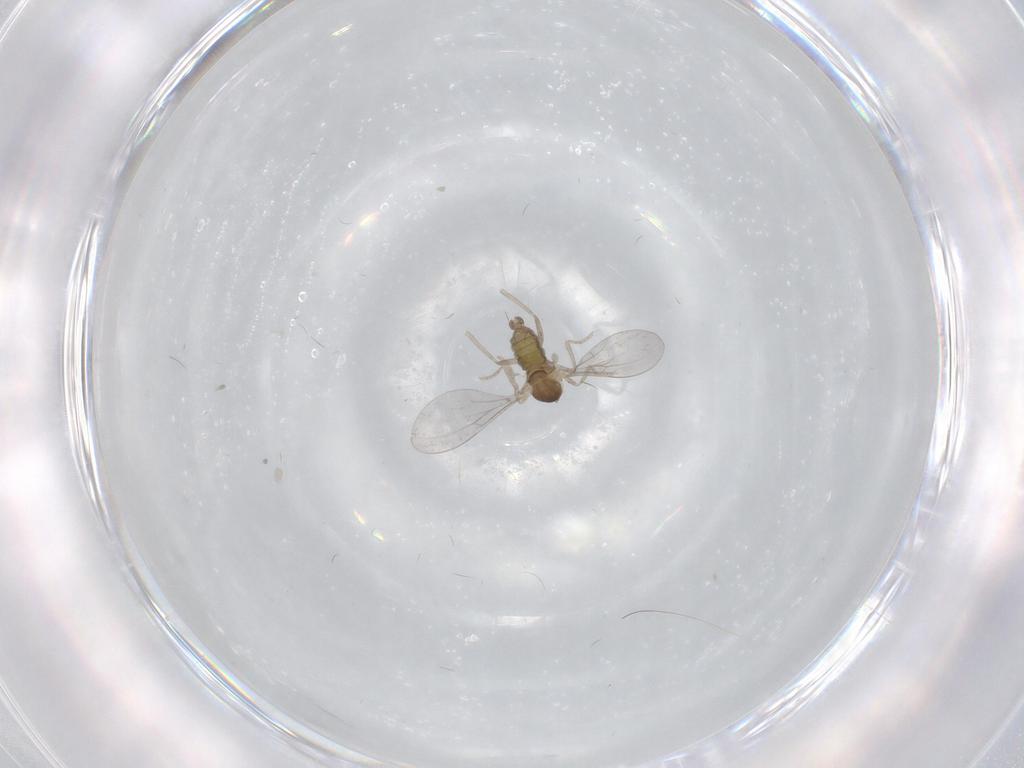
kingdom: Animalia
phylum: Arthropoda
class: Insecta
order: Diptera
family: Cecidomyiidae
